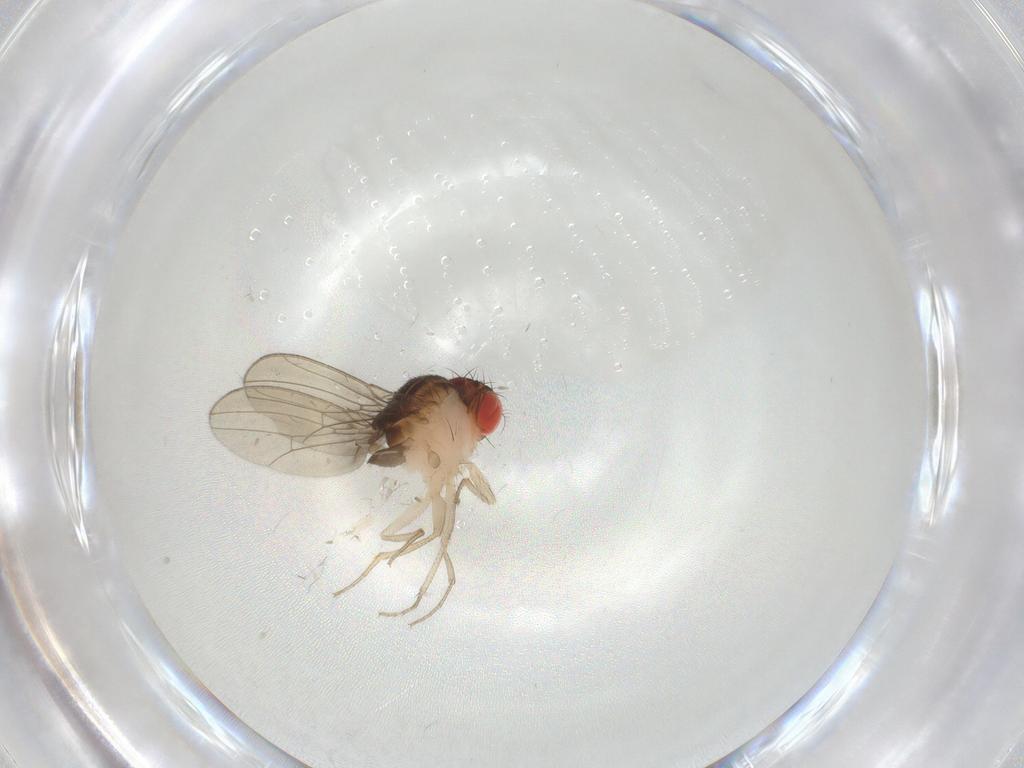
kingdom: Animalia
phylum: Arthropoda
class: Insecta
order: Diptera
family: Drosophilidae
